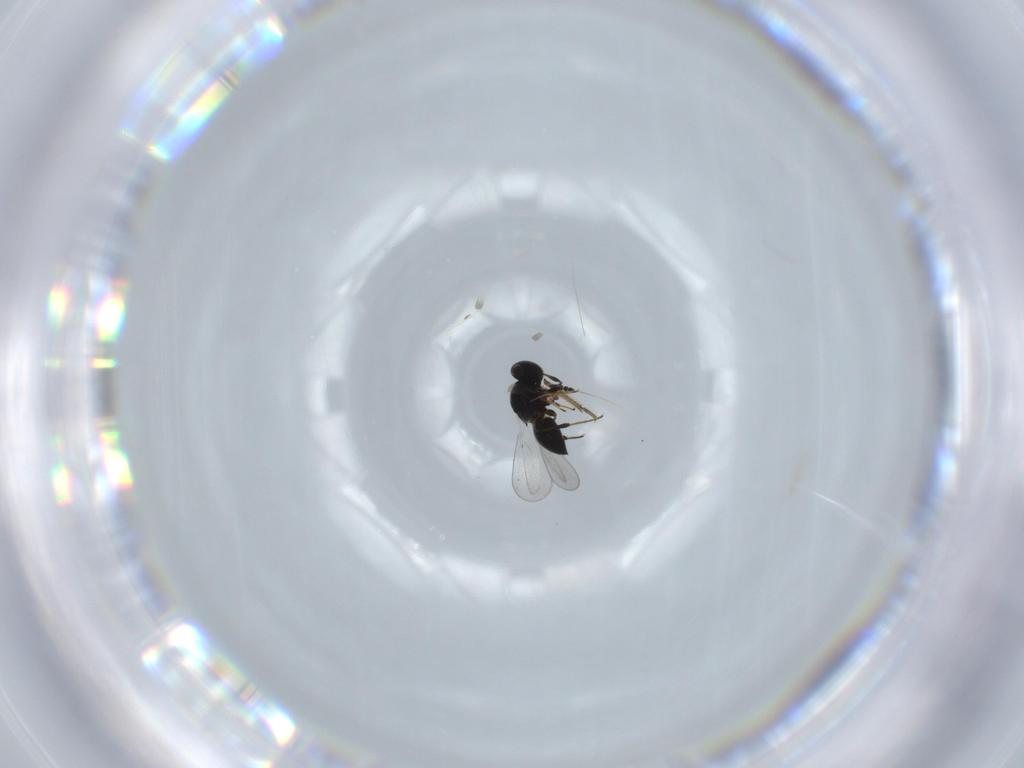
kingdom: Animalia
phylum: Arthropoda
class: Insecta
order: Hymenoptera
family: Platygastridae
